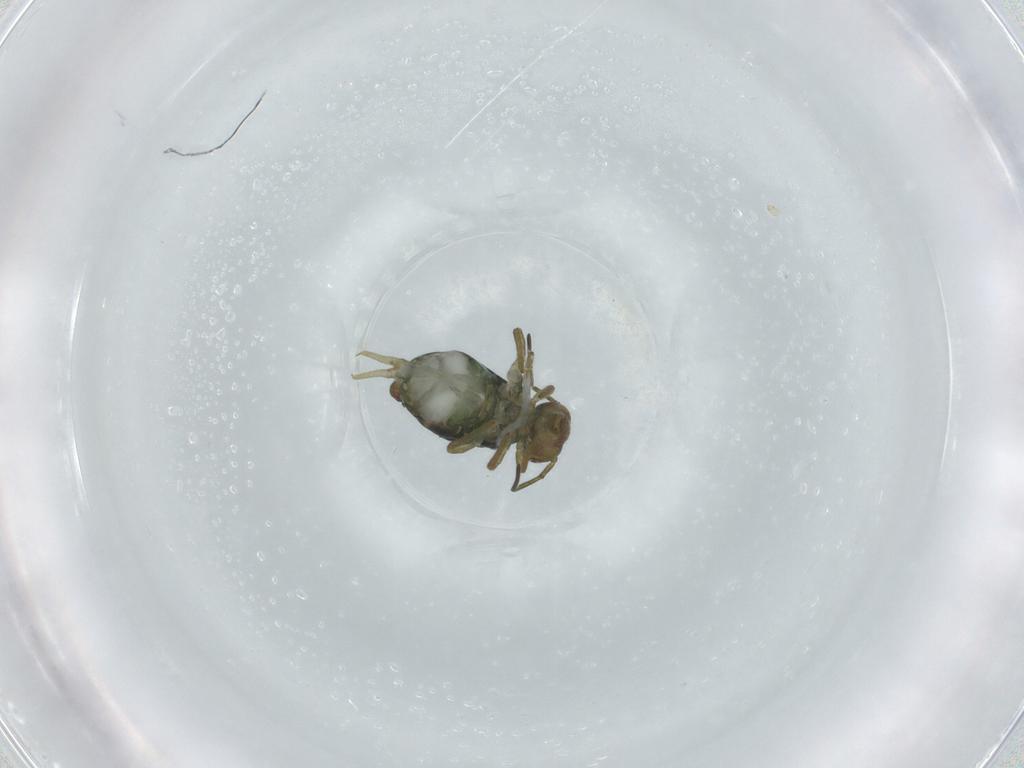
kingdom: Animalia
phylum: Arthropoda
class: Collembola
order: Symphypleona
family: Sminthuridae
